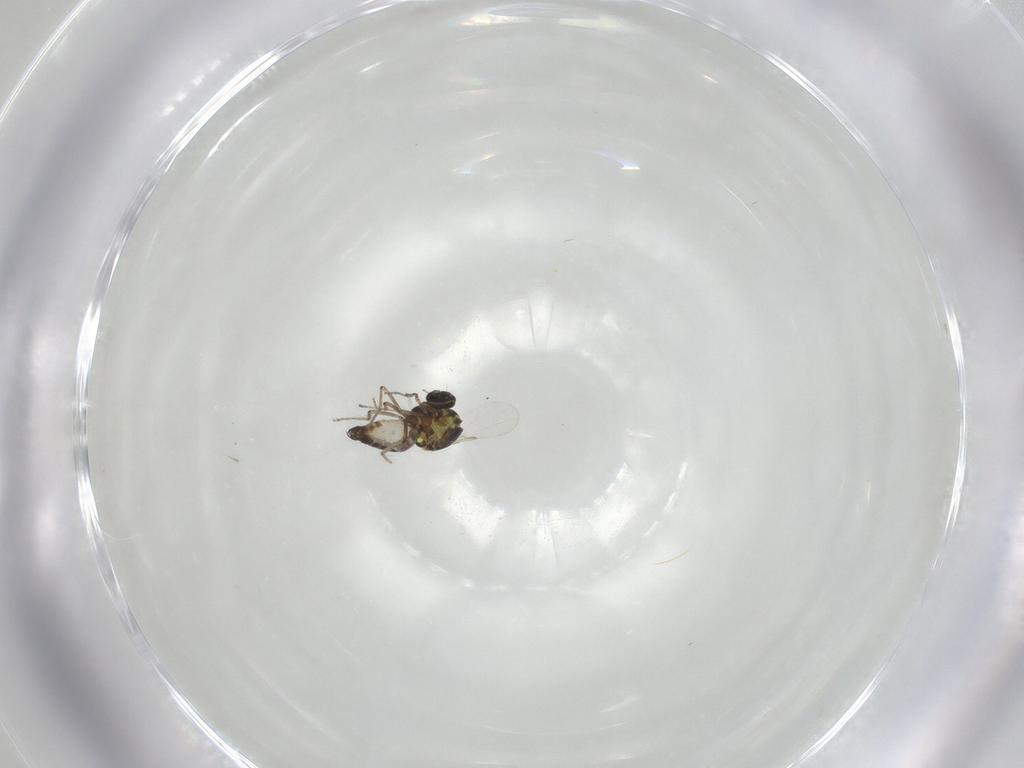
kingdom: Animalia
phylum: Arthropoda
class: Insecta
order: Diptera
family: Ceratopogonidae
